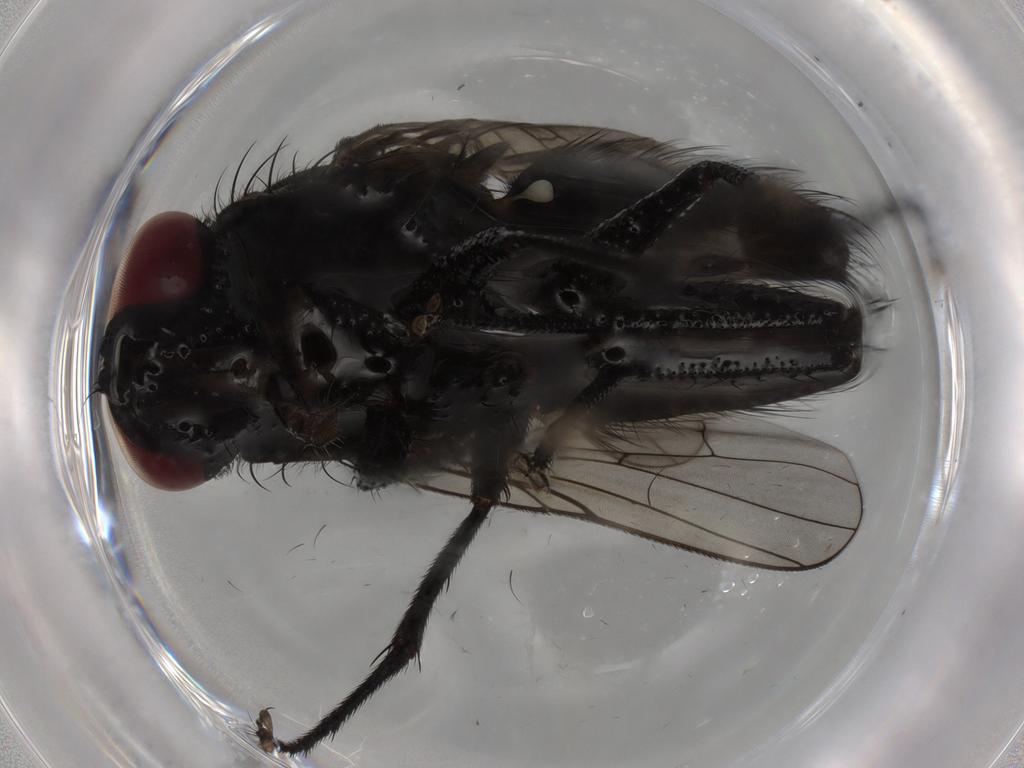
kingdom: Animalia
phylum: Arthropoda
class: Insecta
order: Diptera
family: Muscidae
